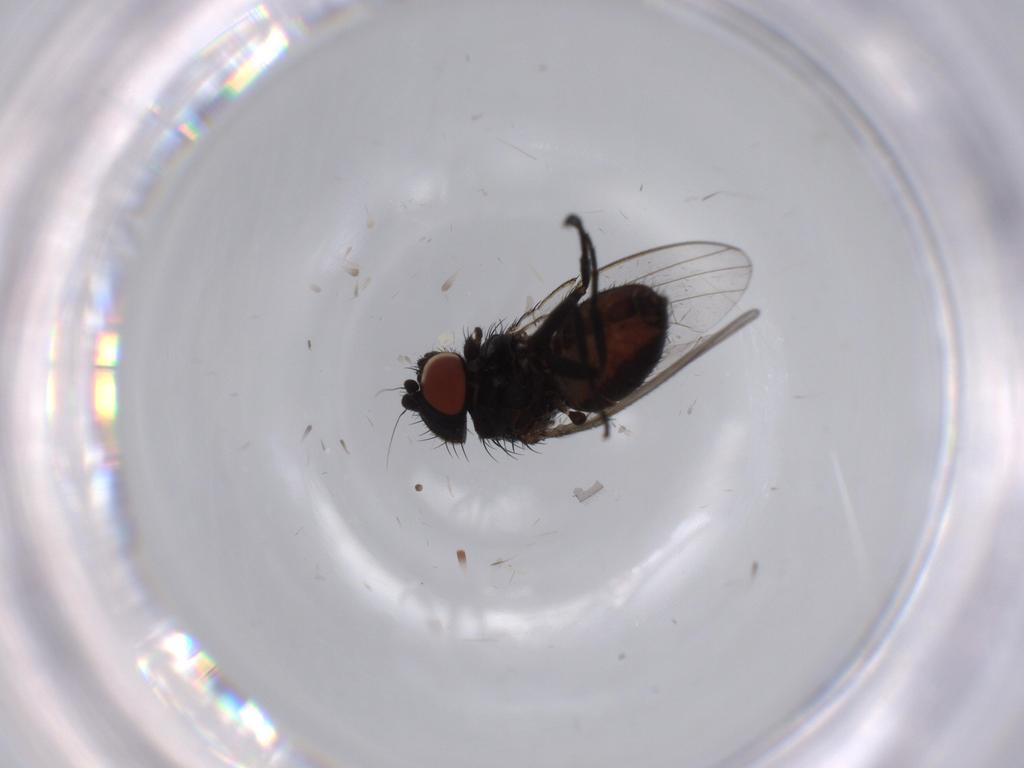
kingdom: Animalia
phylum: Arthropoda
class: Insecta
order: Diptera
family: Milichiidae
